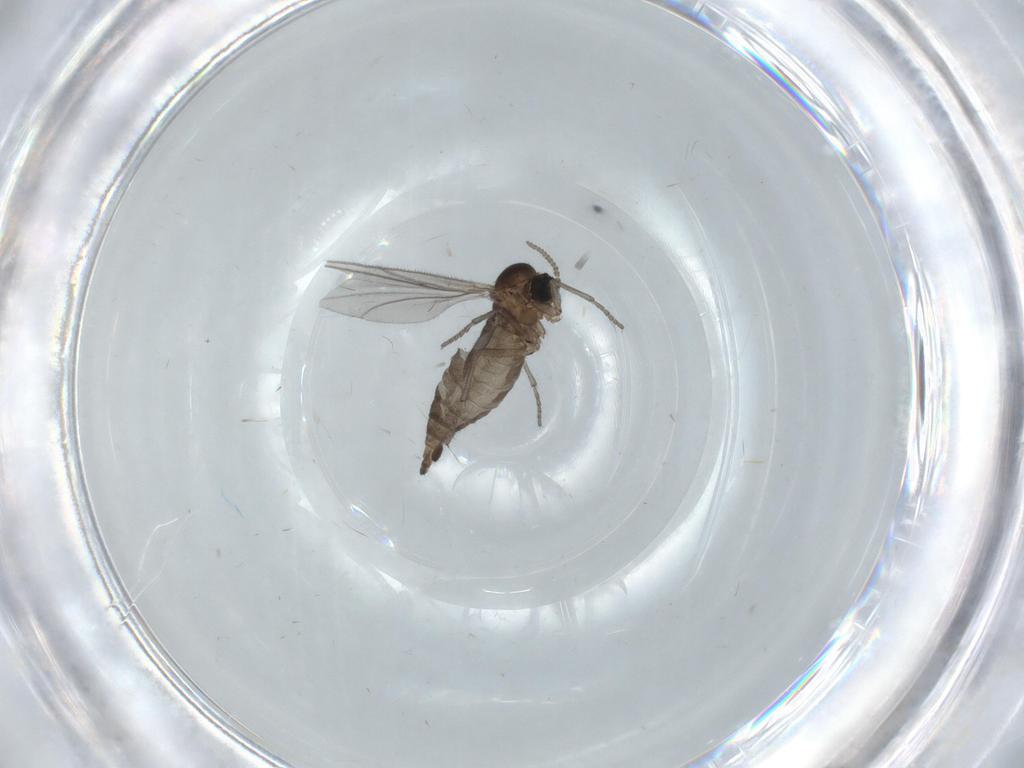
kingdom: Animalia
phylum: Arthropoda
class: Insecta
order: Diptera
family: Sciaridae
